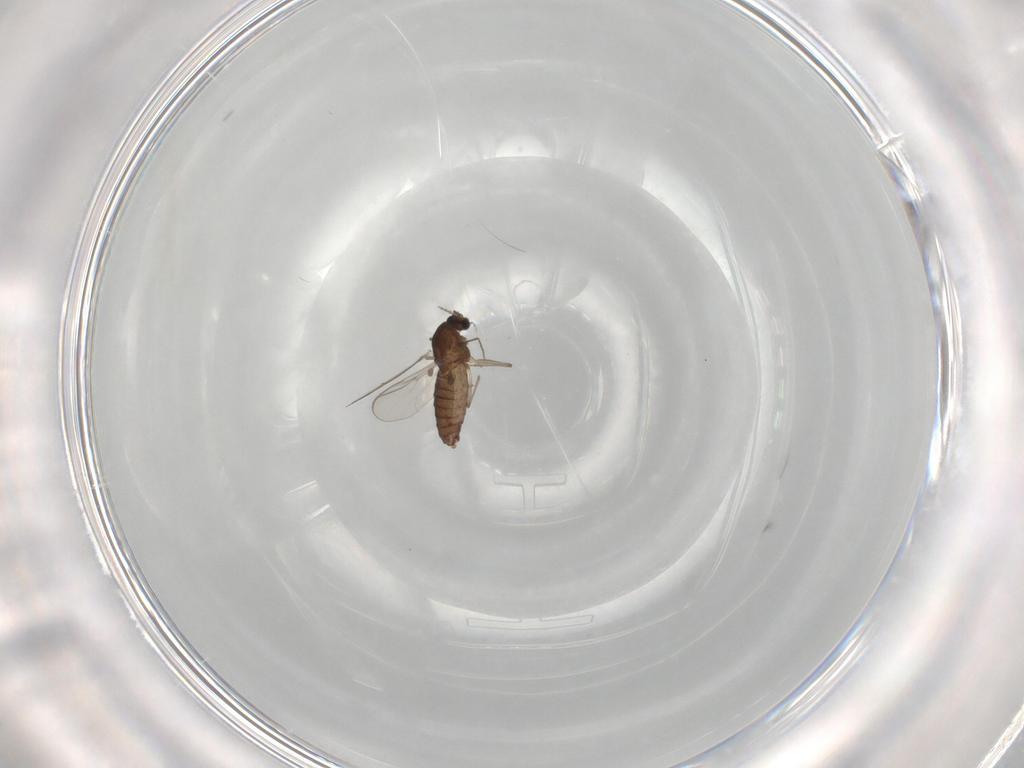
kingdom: Animalia
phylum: Arthropoda
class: Insecta
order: Diptera
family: Chironomidae
